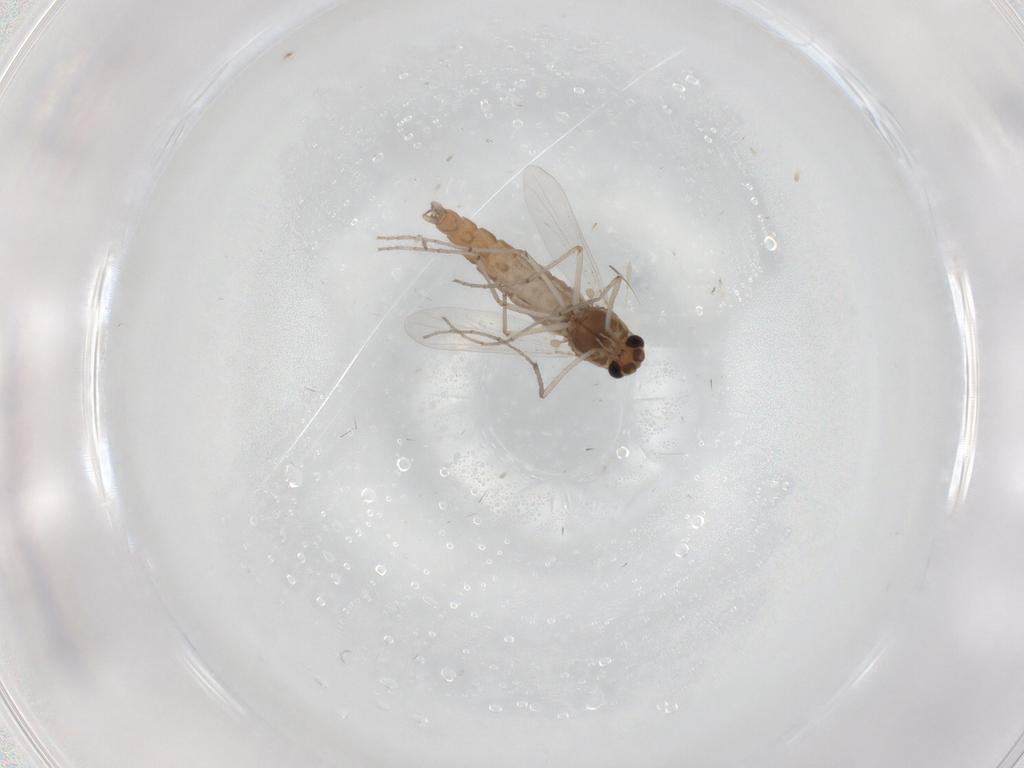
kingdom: Animalia
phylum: Arthropoda
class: Insecta
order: Diptera
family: Chironomidae
